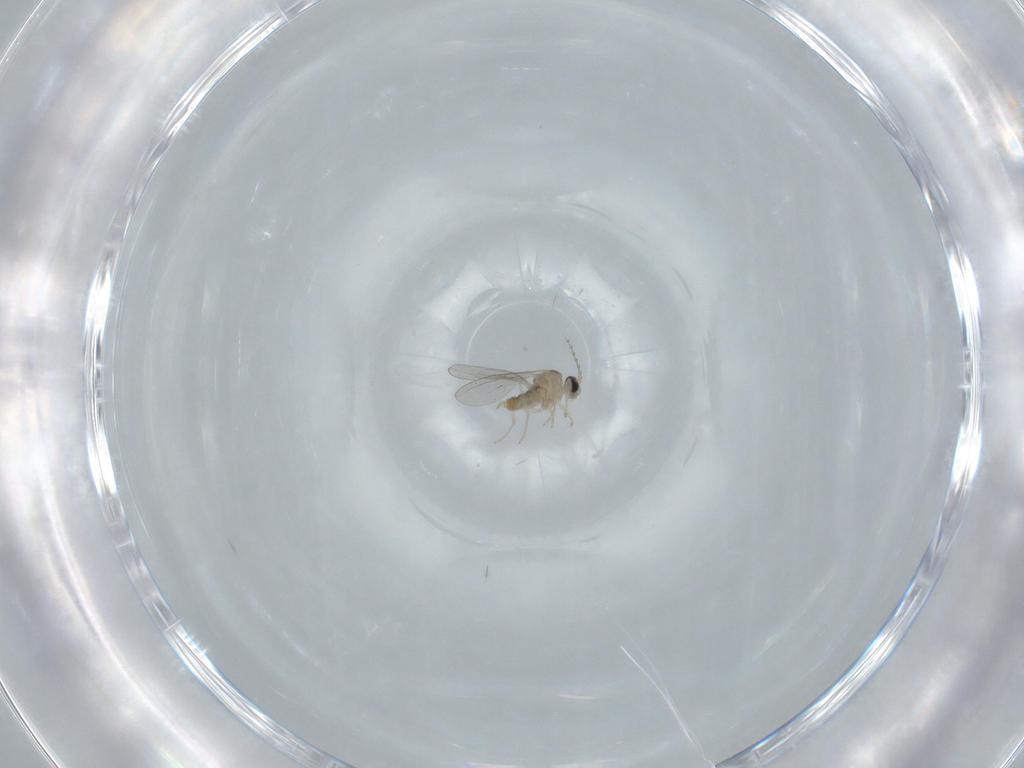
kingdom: Animalia
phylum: Arthropoda
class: Insecta
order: Diptera
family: Cecidomyiidae
